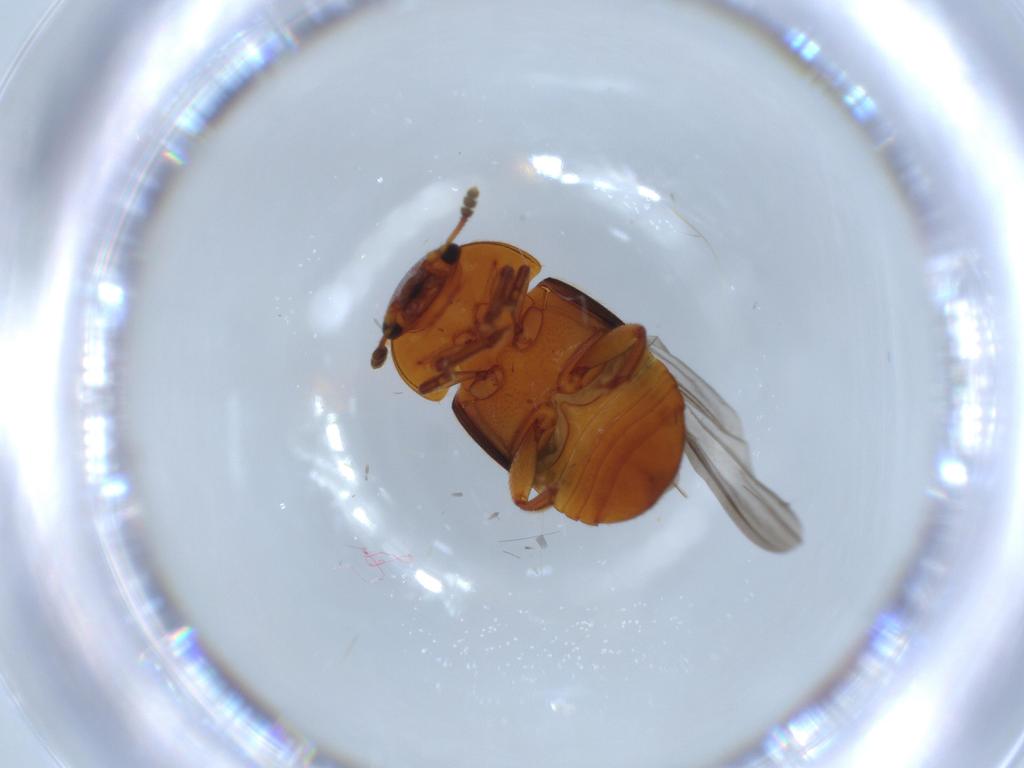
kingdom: Animalia
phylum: Arthropoda
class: Insecta
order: Coleoptera
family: Nitidulidae
